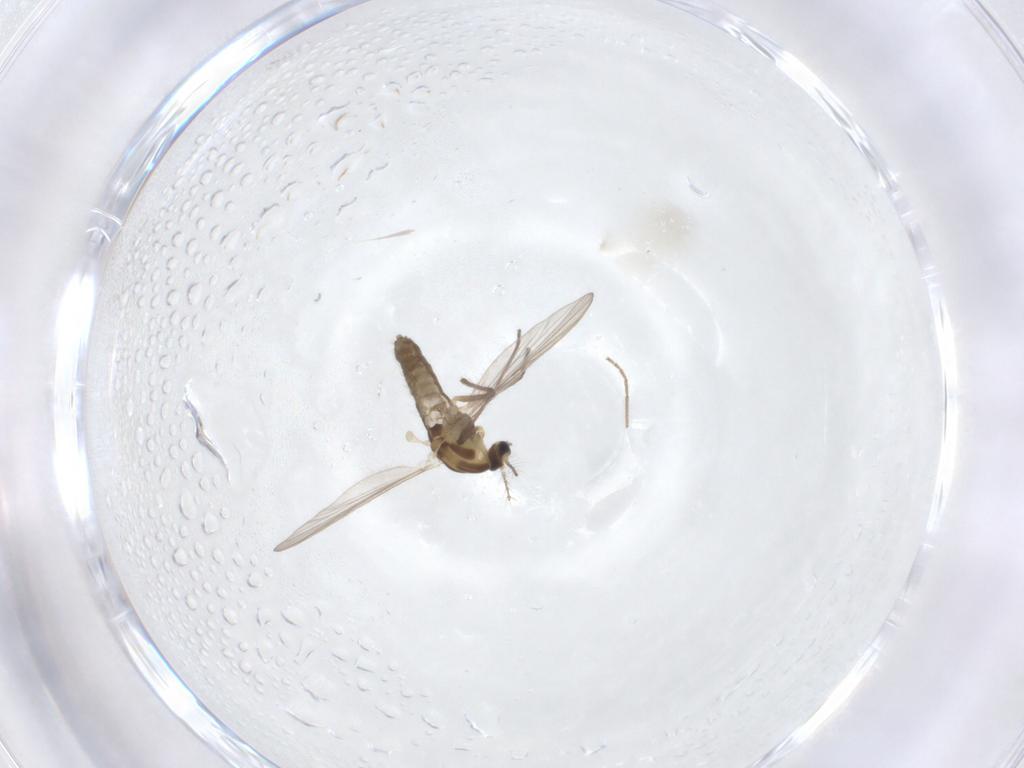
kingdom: Animalia
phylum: Arthropoda
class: Insecta
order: Diptera
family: Chironomidae
